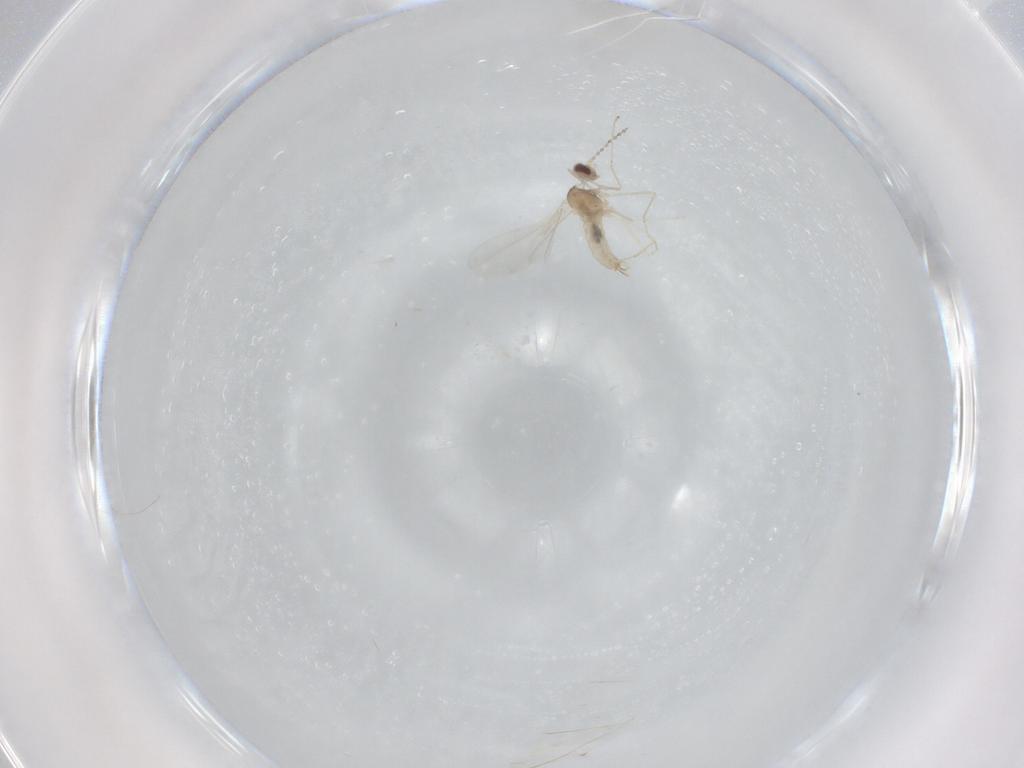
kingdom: Animalia
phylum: Arthropoda
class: Insecta
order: Diptera
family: Cecidomyiidae
